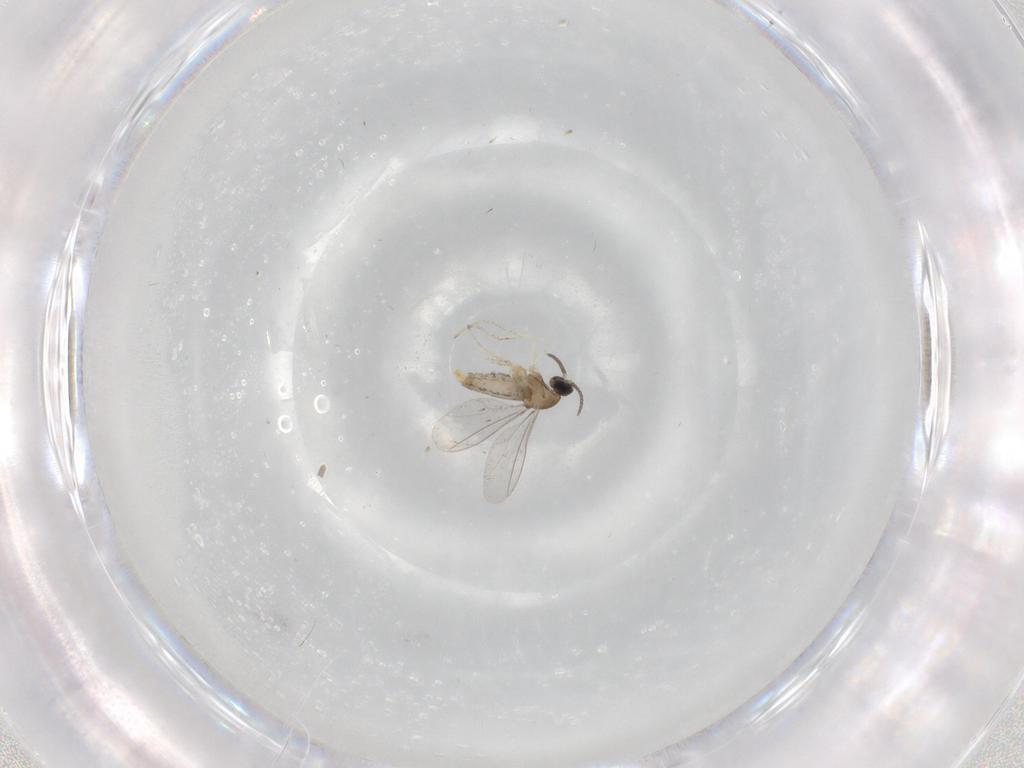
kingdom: Animalia
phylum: Arthropoda
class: Insecta
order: Diptera
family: Cecidomyiidae
